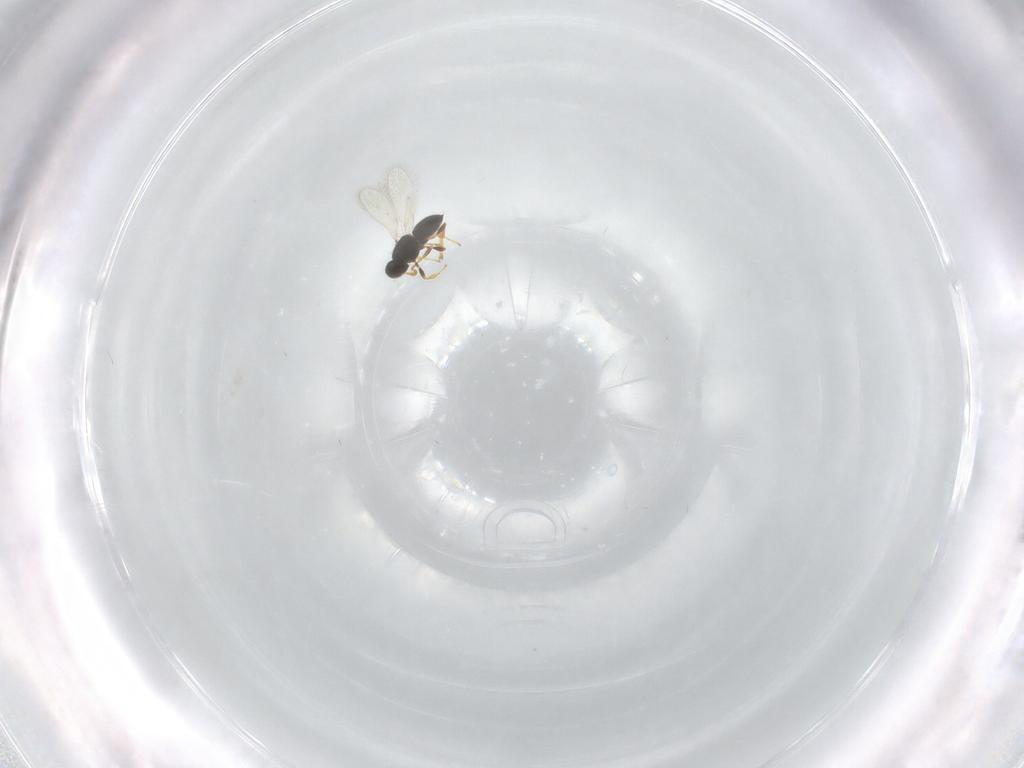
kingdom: Animalia
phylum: Arthropoda
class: Insecta
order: Hymenoptera
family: Platygastridae
